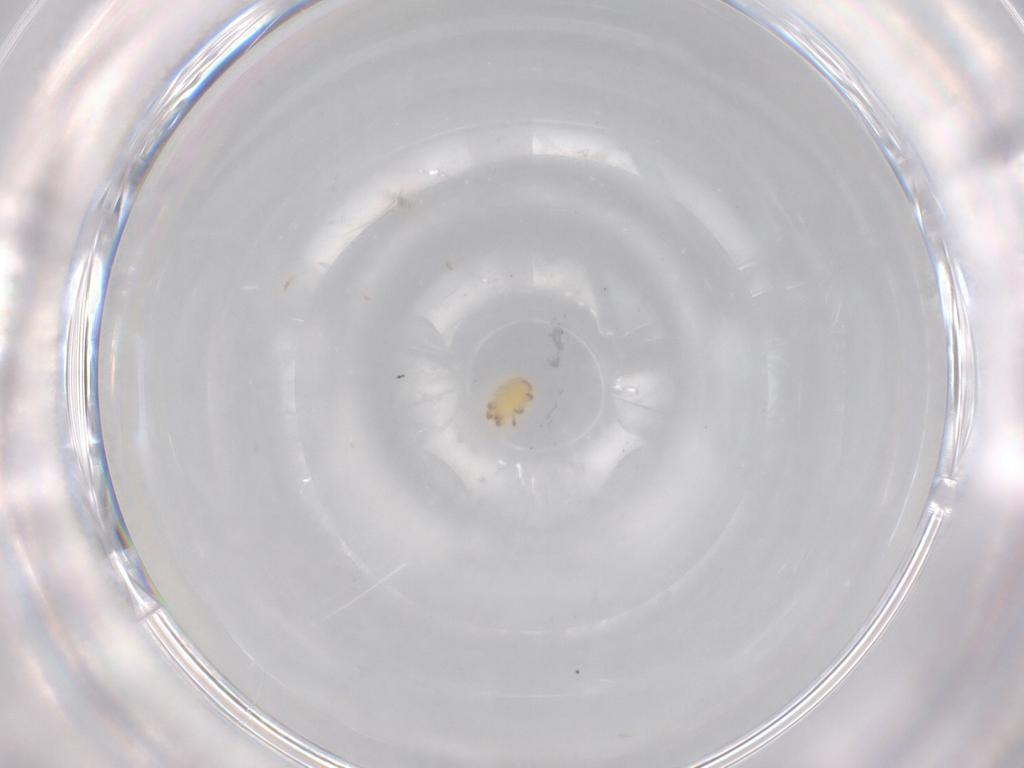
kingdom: Animalia
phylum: Arthropoda
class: Arachnida
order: Trombidiformes
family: Stigmaeidae
